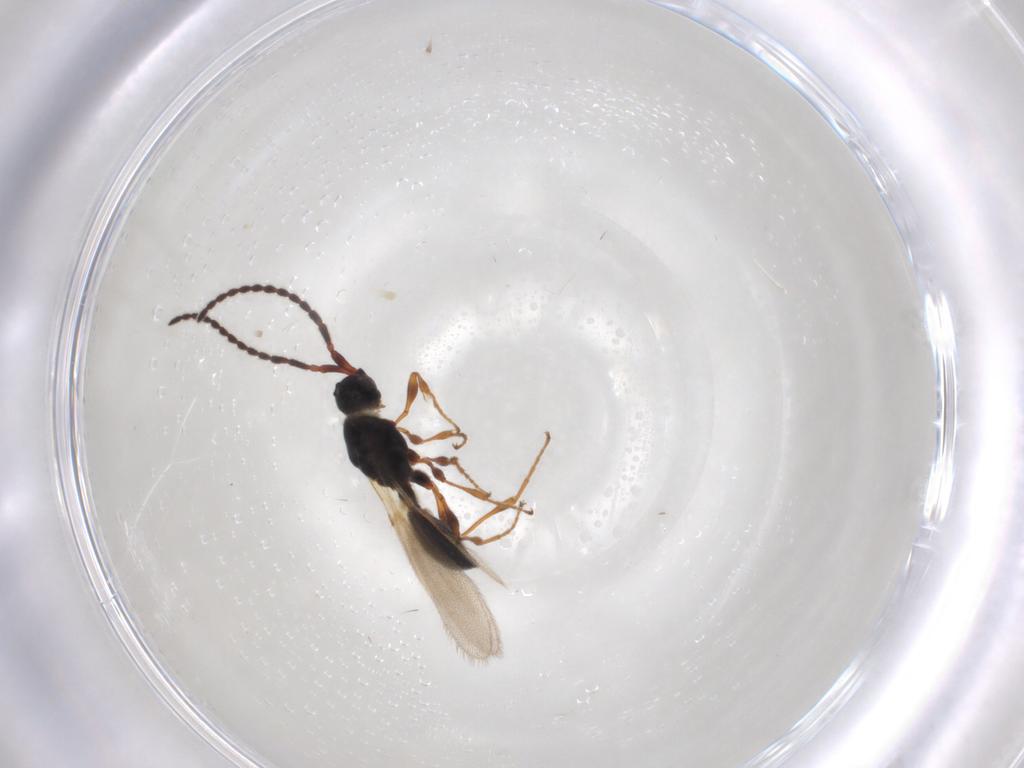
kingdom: Animalia
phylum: Arthropoda
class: Insecta
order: Hymenoptera
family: Diapriidae
